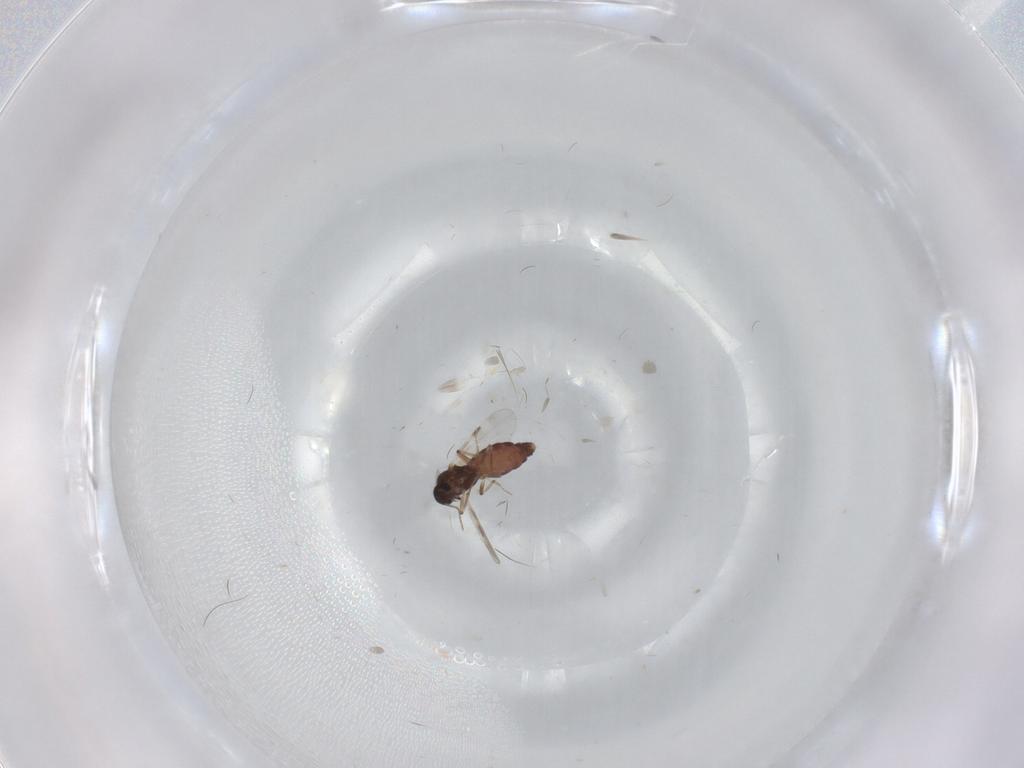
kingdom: Animalia
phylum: Arthropoda
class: Insecta
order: Diptera
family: Phoridae
